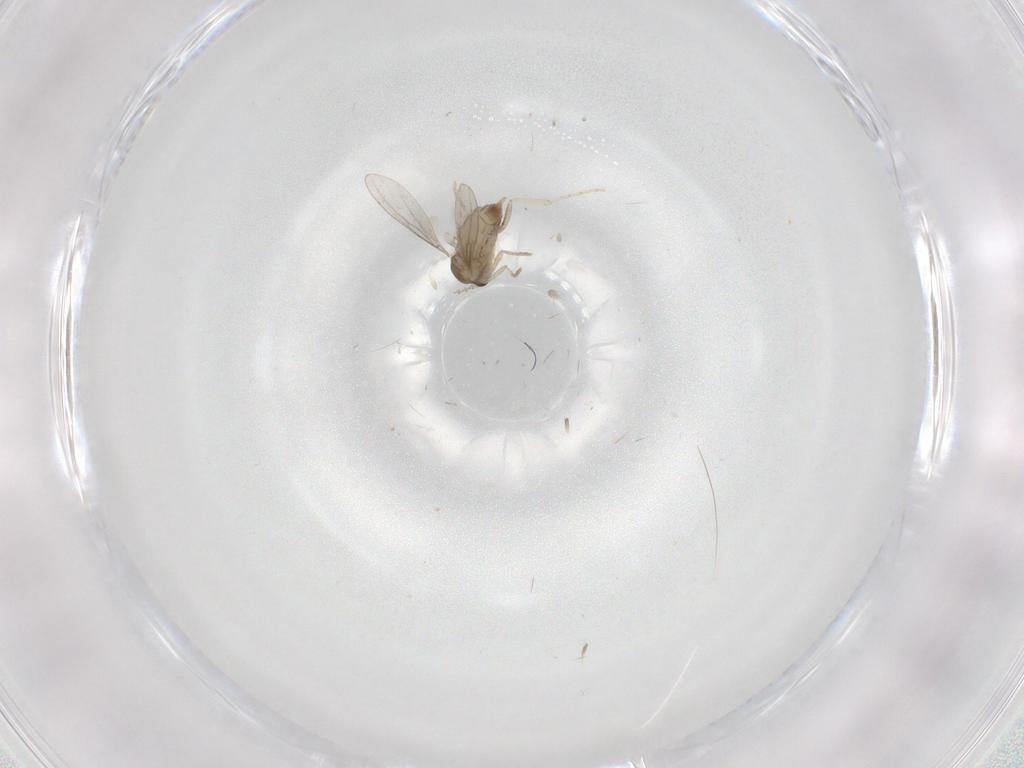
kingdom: Animalia
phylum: Arthropoda
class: Insecta
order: Diptera
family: Cecidomyiidae
